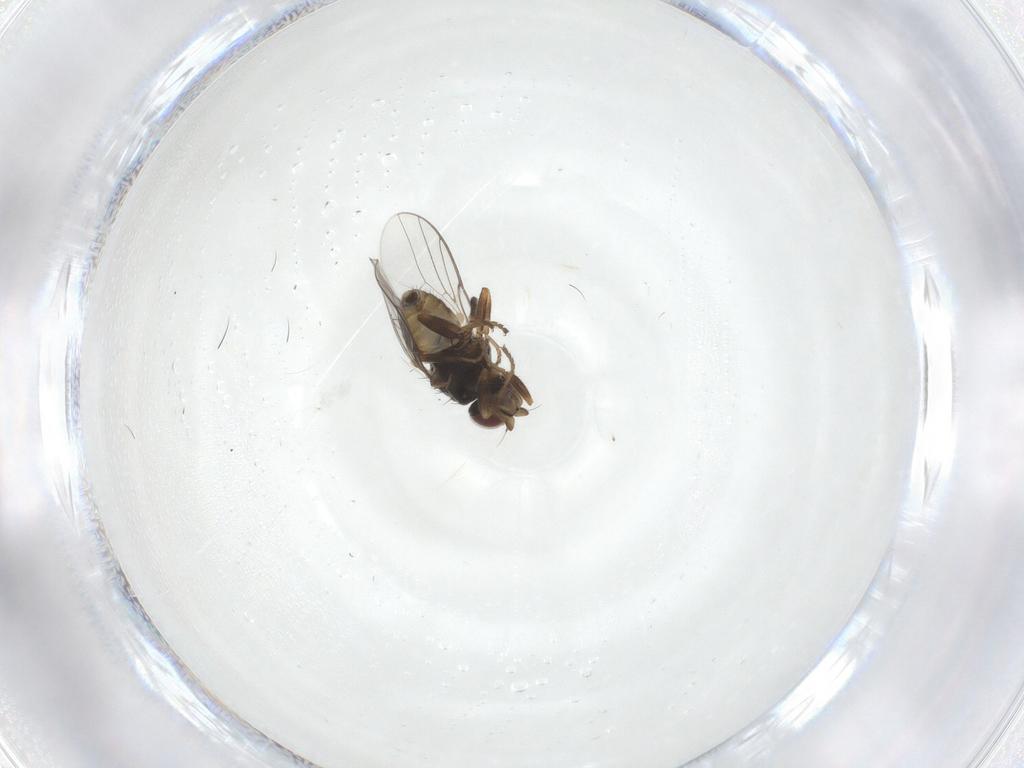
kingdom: Animalia
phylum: Arthropoda
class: Insecta
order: Diptera
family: Chloropidae
